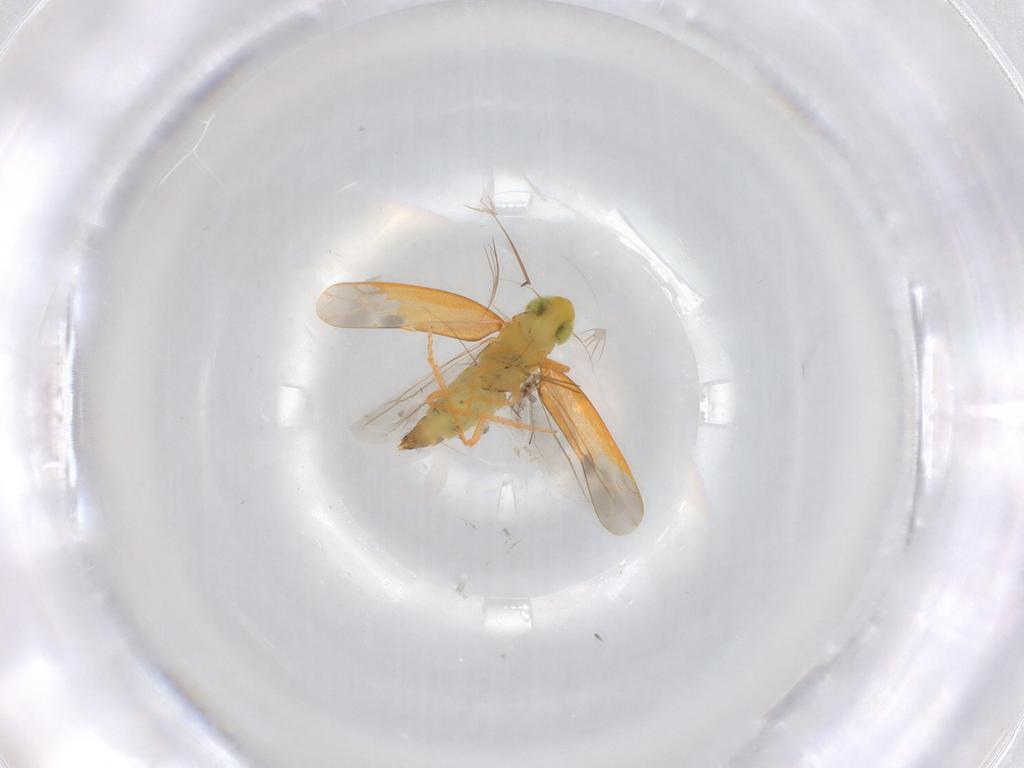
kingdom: Animalia
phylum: Arthropoda
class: Insecta
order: Hemiptera
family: Cicadellidae
